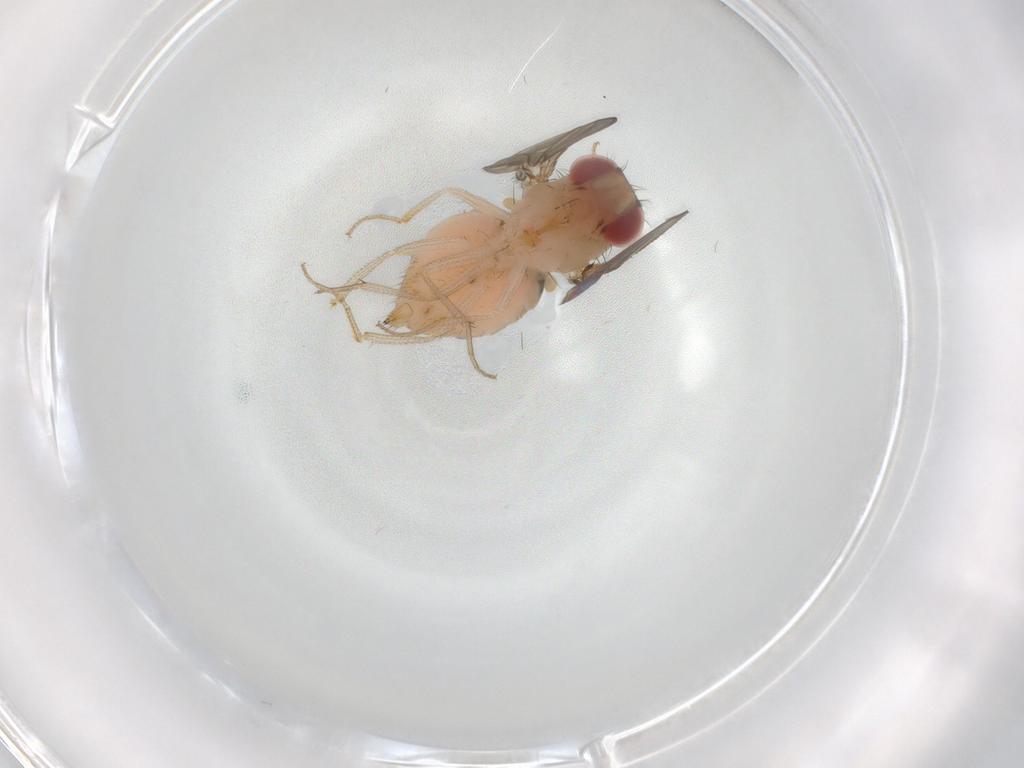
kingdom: Animalia
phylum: Arthropoda
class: Insecta
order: Diptera
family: Drosophilidae
